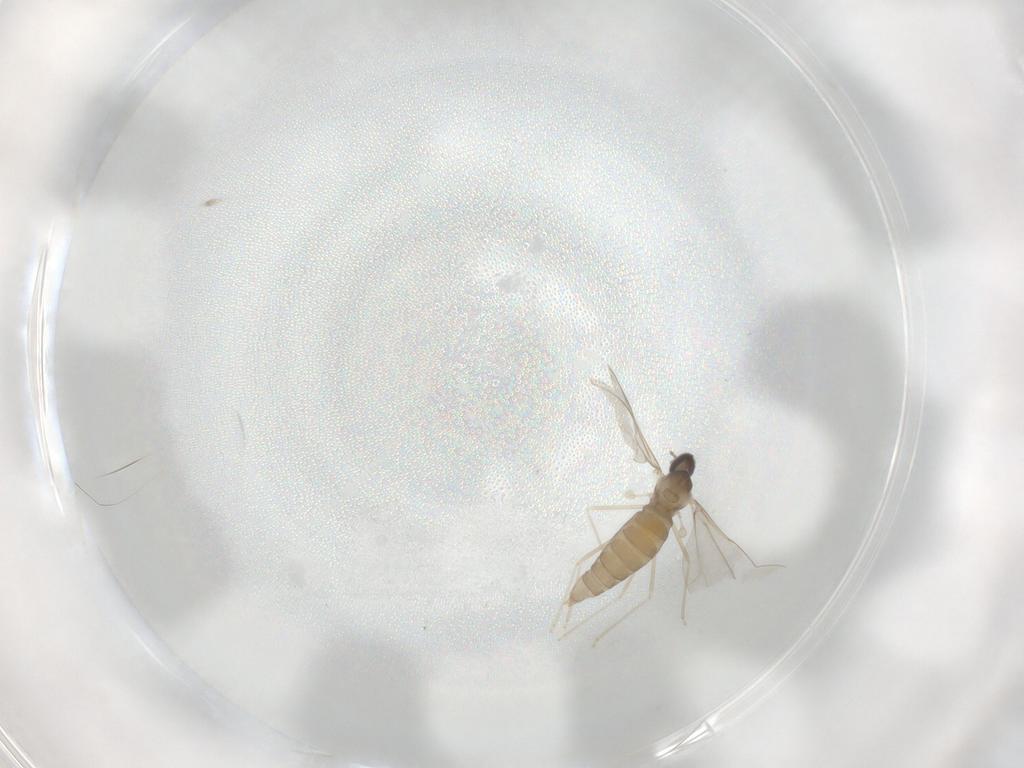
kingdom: Animalia
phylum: Arthropoda
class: Insecta
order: Diptera
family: Cecidomyiidae
